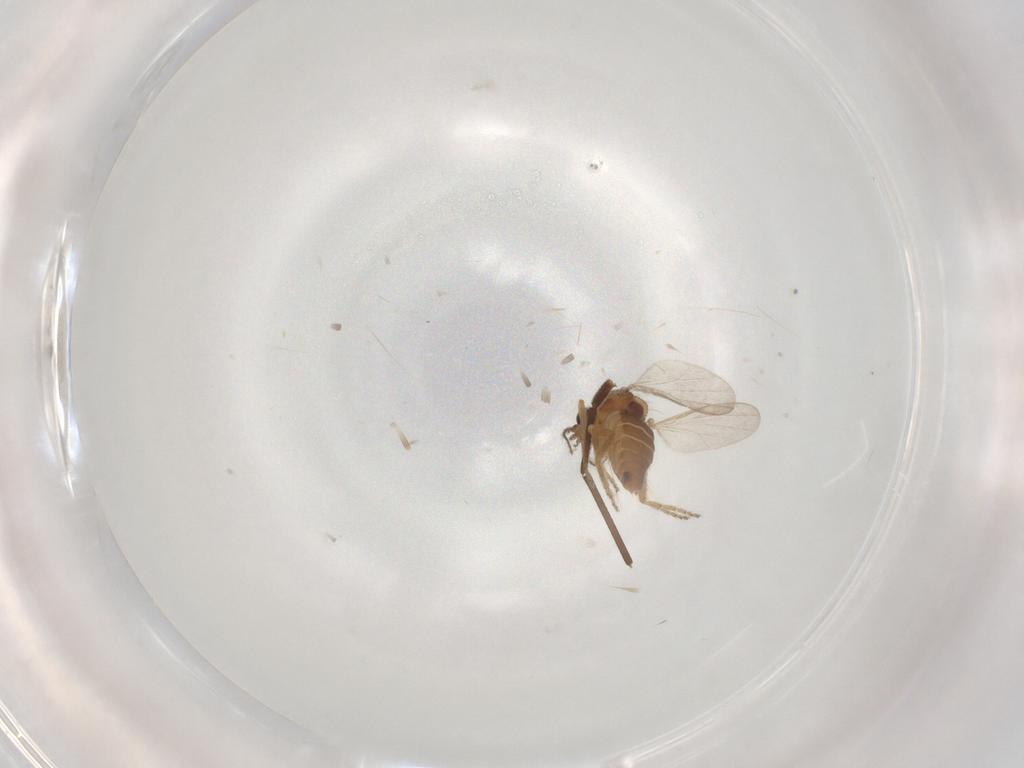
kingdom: Animalia
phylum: Arthropoda
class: Insecta
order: Diptera
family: Cecidomyiidae
